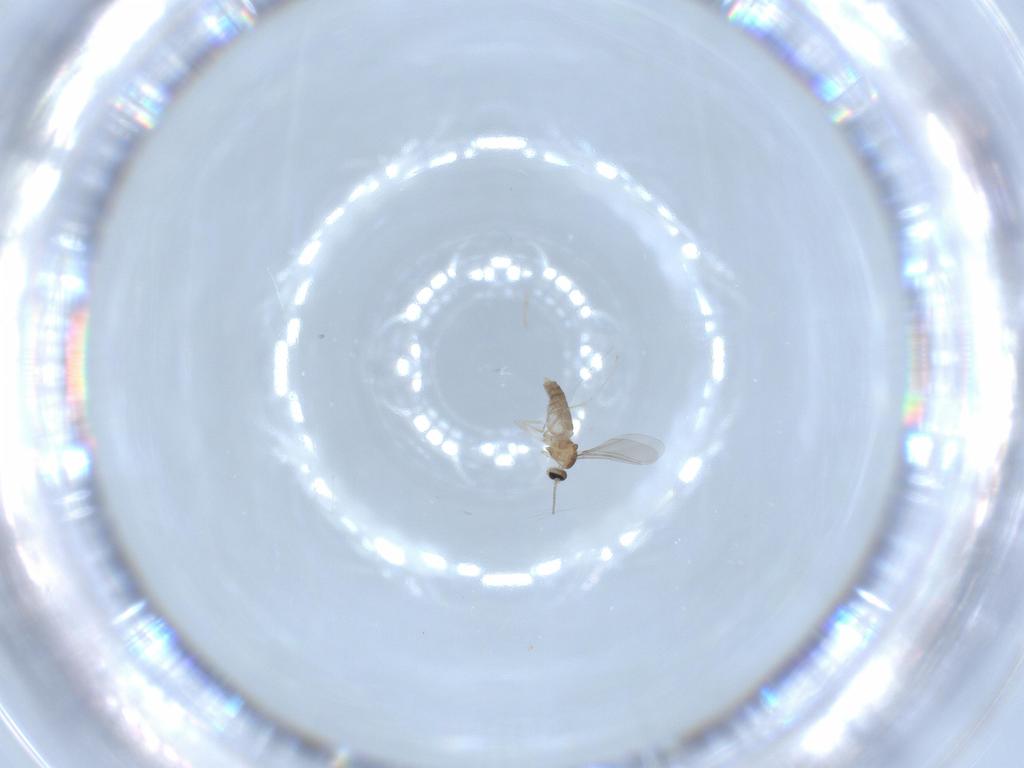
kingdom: Animalia
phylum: Arthropoda
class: Insecta
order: Diptera
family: Cecidomyiidae
